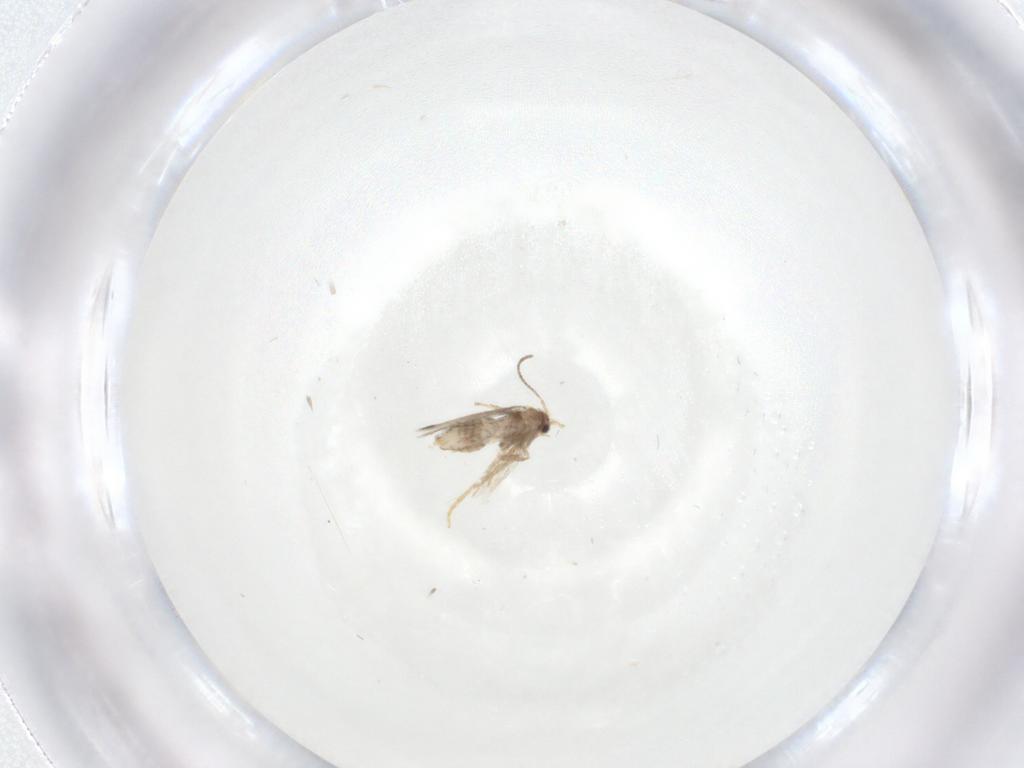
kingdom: Animalia
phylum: Arthropoda
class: Insecta
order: Lepidoptera
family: Nepticulidae
